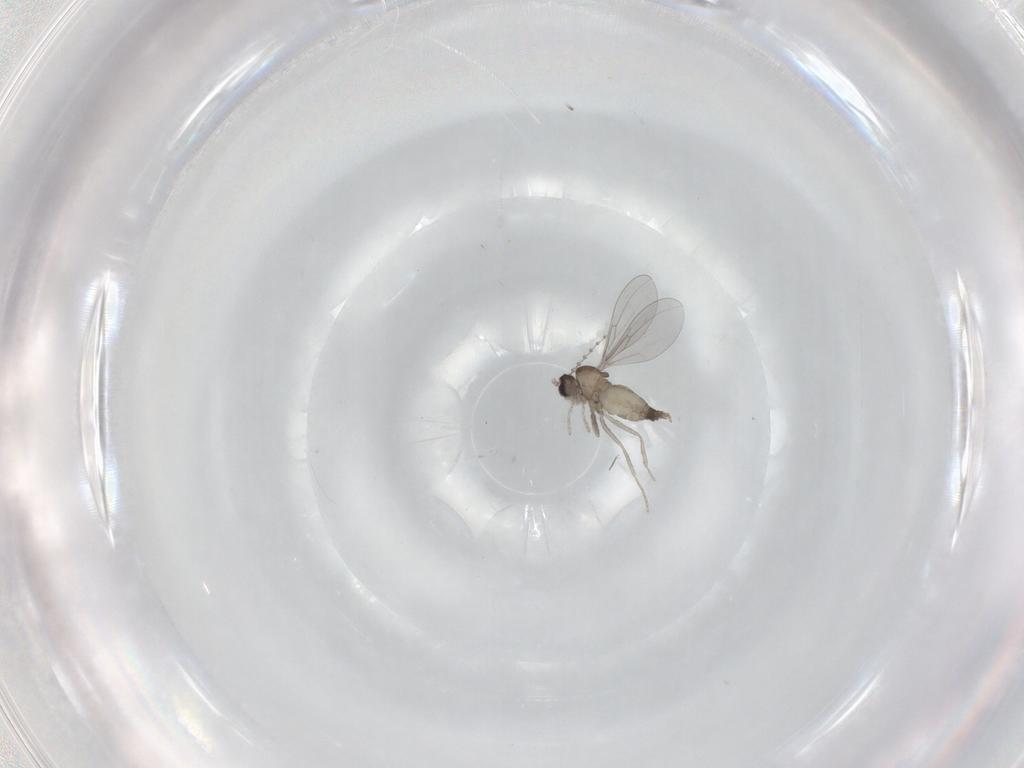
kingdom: Animalia
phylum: Arthropoda
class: Insecta
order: Diptera
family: Cecidomyiidae
